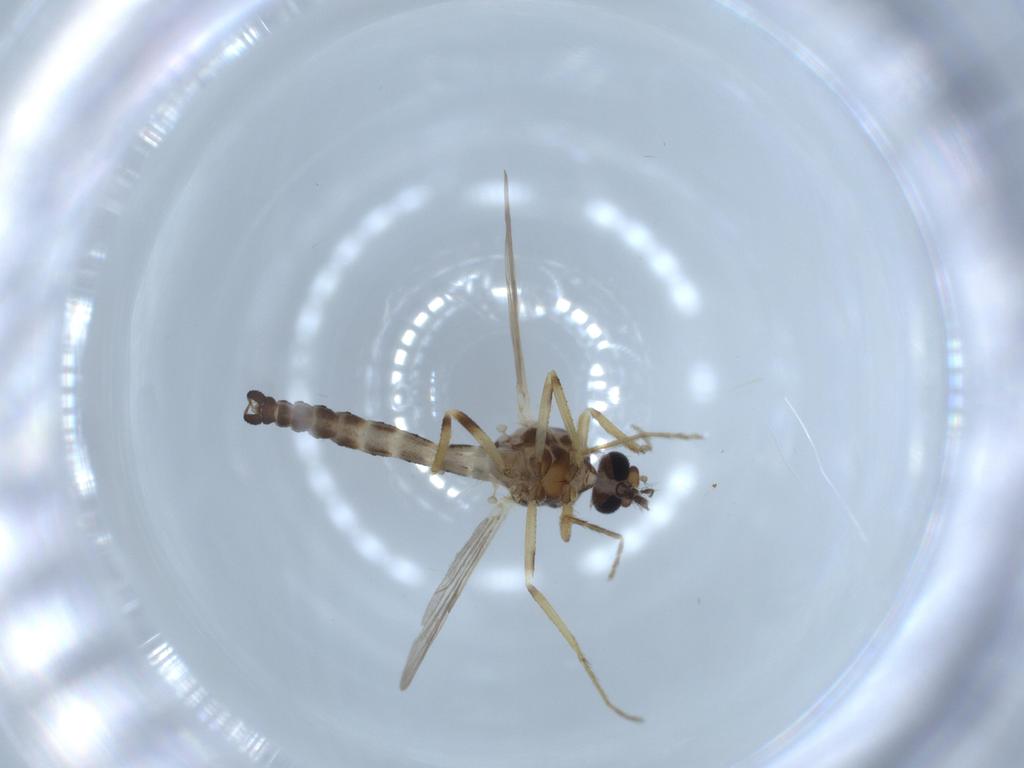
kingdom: Animalia
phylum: Arthropoda
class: Insecta
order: Diptera
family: Ceratopogonidae
